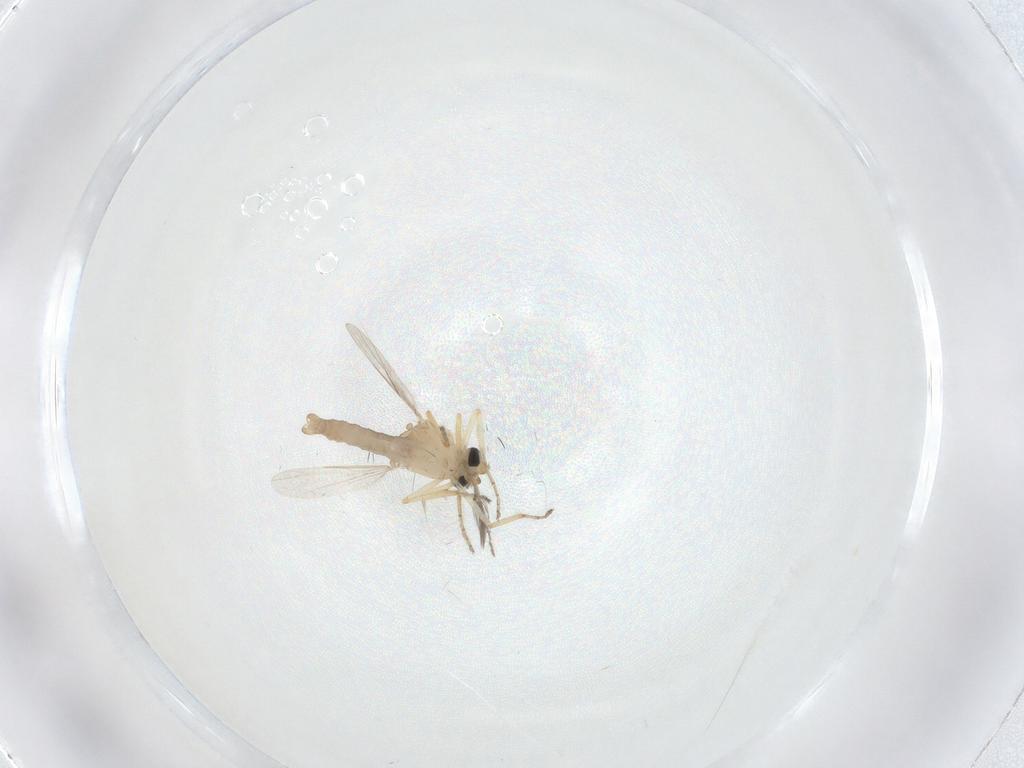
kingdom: Animalia
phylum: Arthropoda
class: Insecta
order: Diptera
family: Ceratopogonidae
